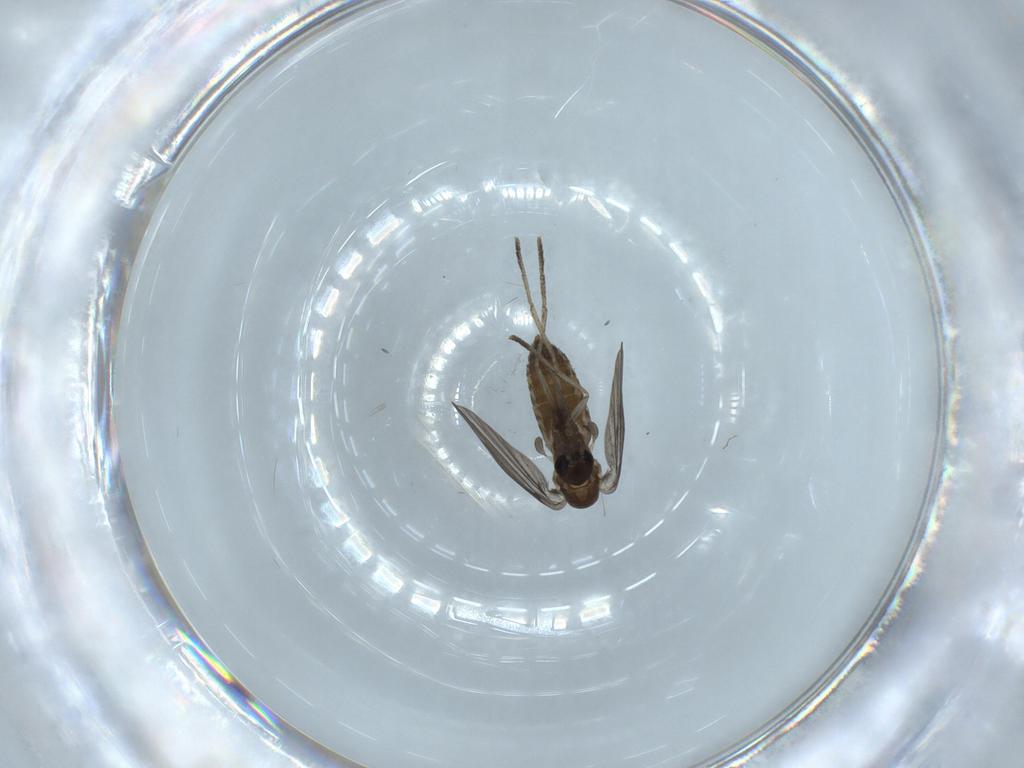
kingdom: Animalia
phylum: Arthropoda
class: Insecta
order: Diptera
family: Psychodidae
